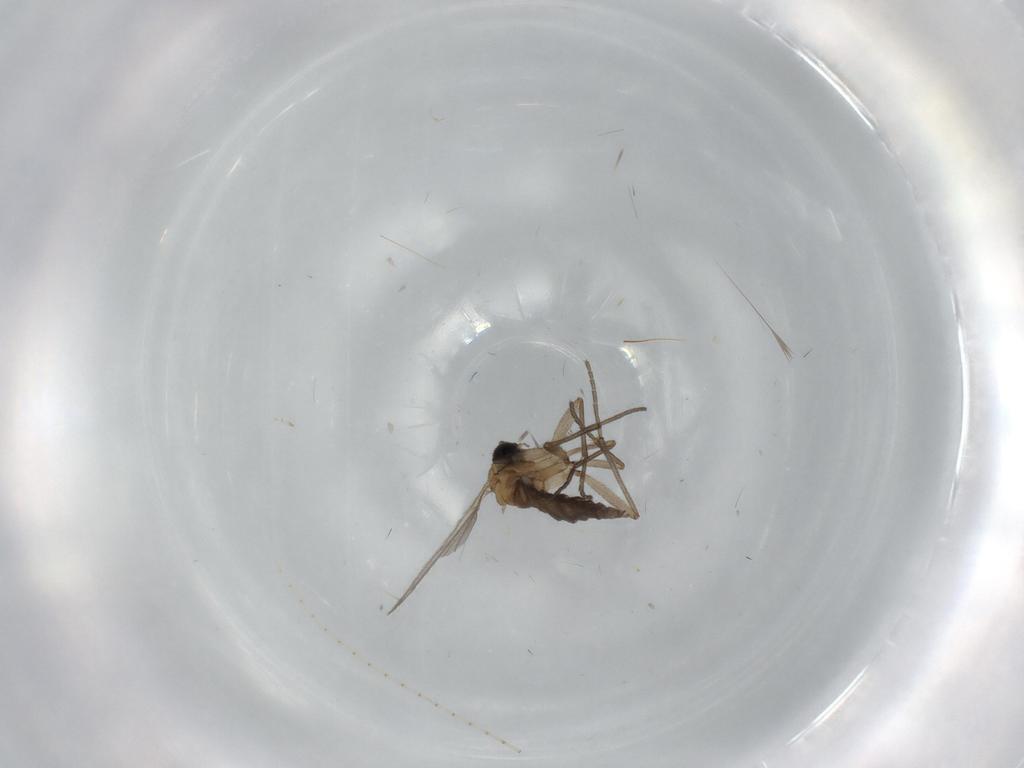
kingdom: Animalia
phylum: Arthropoda
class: Insecta
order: Diptera
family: Sciaridae
